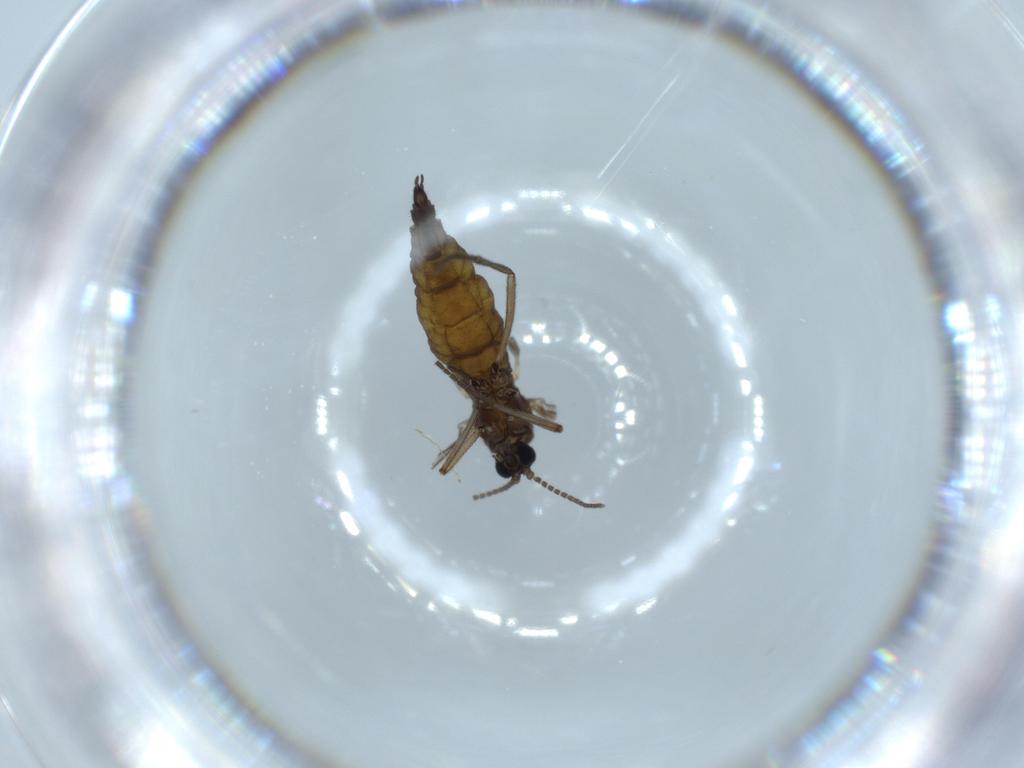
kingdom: Animalia
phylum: Arthropoda
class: Insecta
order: Diptera
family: Sciaridae
